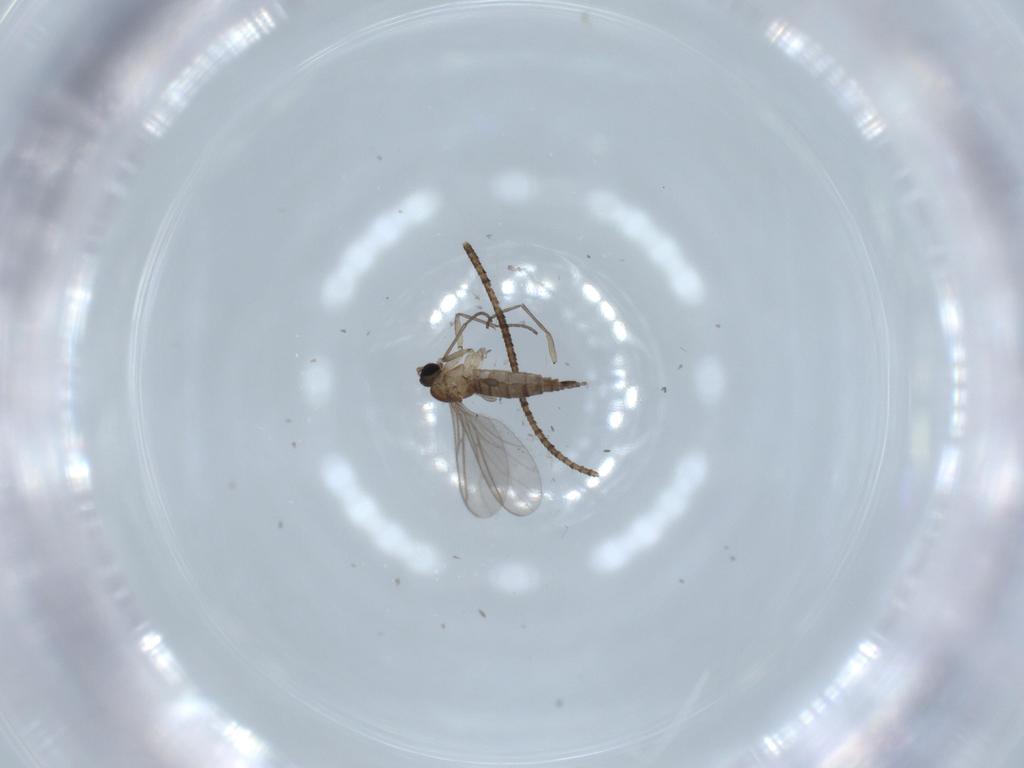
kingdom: Animalia
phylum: Arthropoda
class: Insecta
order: Diptera
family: Sciaridae
